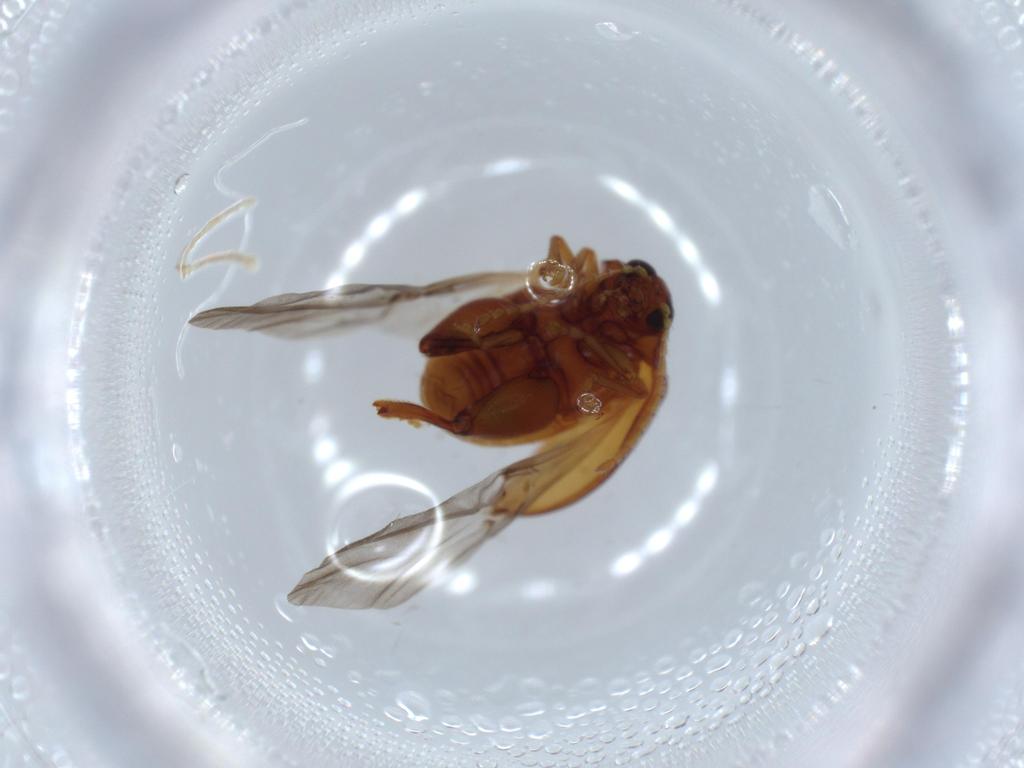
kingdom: Animalia
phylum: Arthropoda
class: Insecta
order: Coleoptera
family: Chrysomelidae
